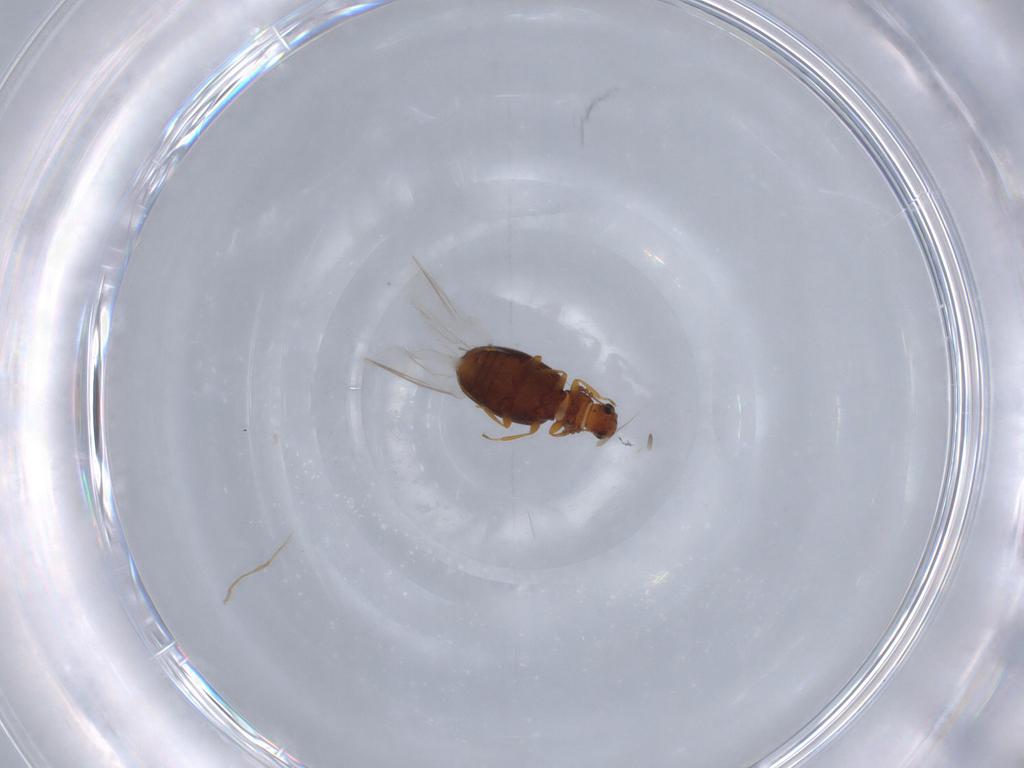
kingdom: Animalia
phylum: Arthropoda
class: Insecta
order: Coleoptera
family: Latridiidae
